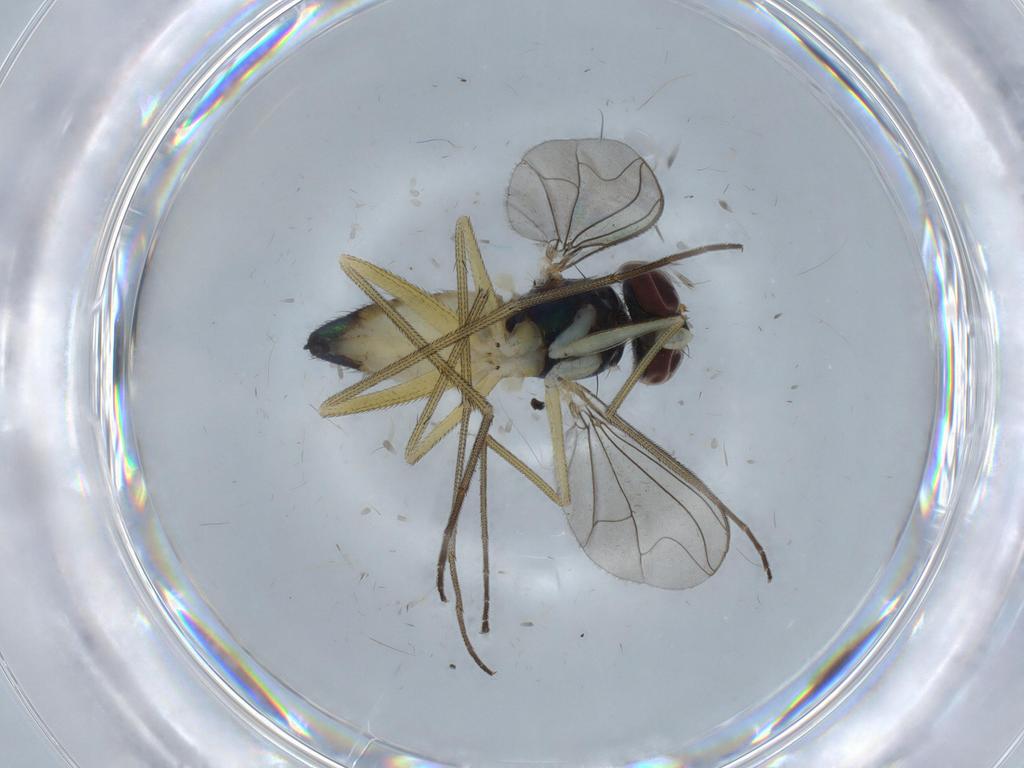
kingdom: Animalia
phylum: Arthropoda
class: Insecta
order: Diptera
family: Dolichopodidae
